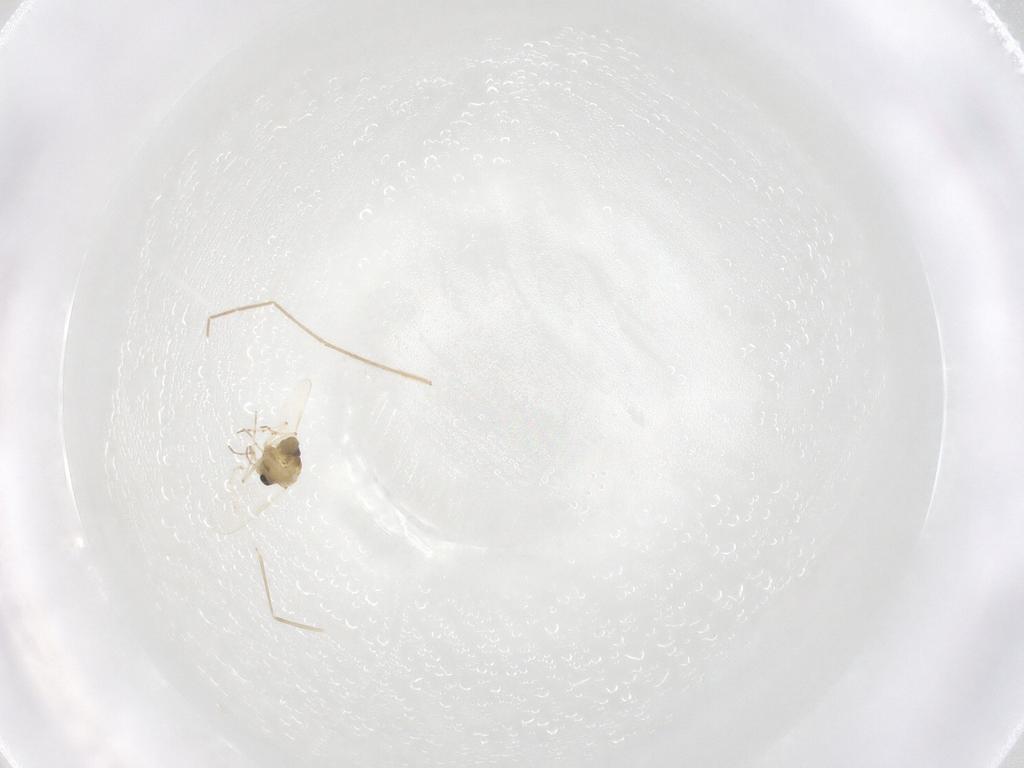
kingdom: Animalia
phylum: Arthropoda
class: Insecta
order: Diptera
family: Chironomidae
